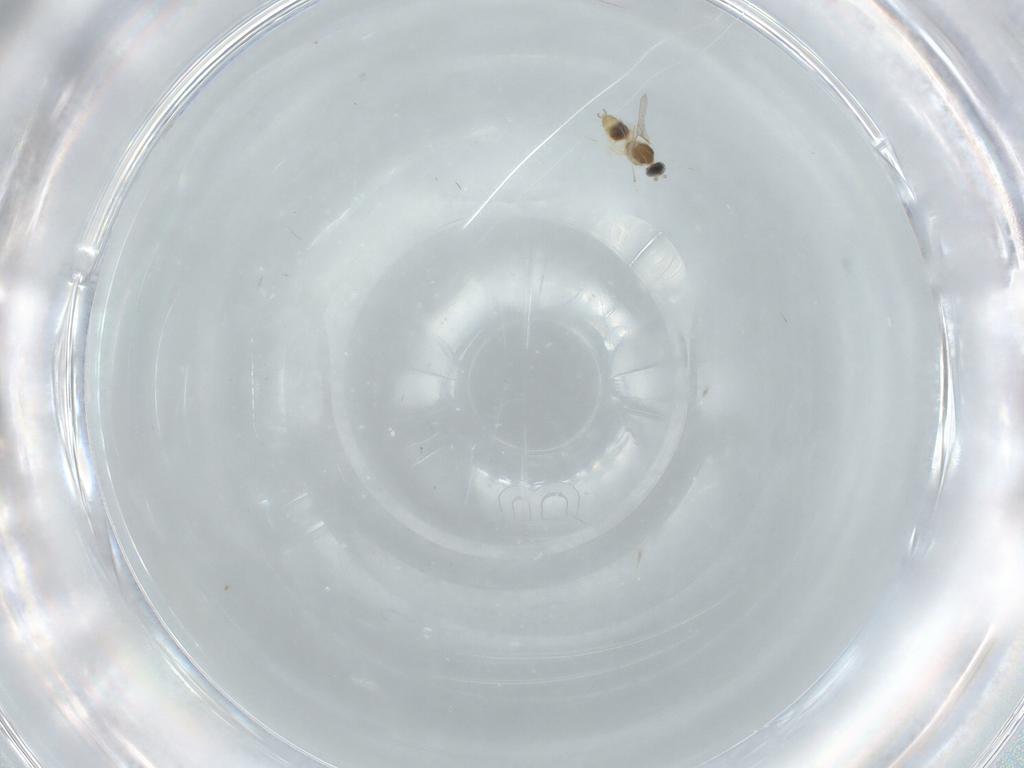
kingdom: Animalia
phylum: Arthropoda
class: Insecta
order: Diptera
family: Cecidomyiidae
